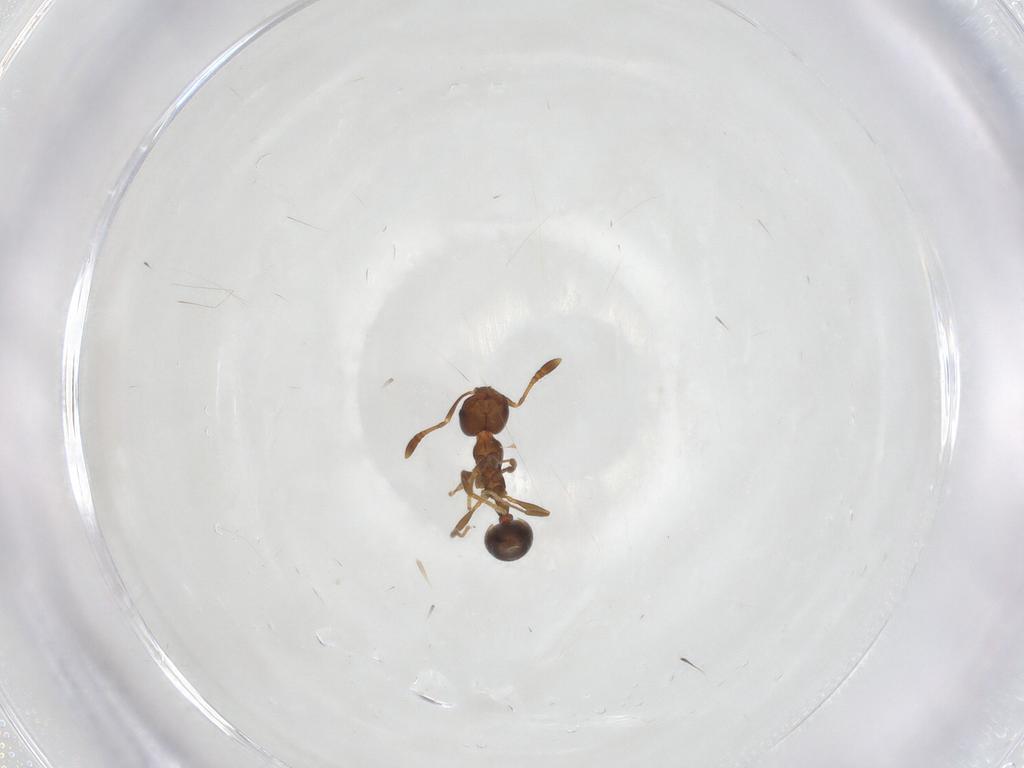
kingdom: Animalia
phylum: Arthropoda
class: Insecta
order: Hymenoptera
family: Formicidae
